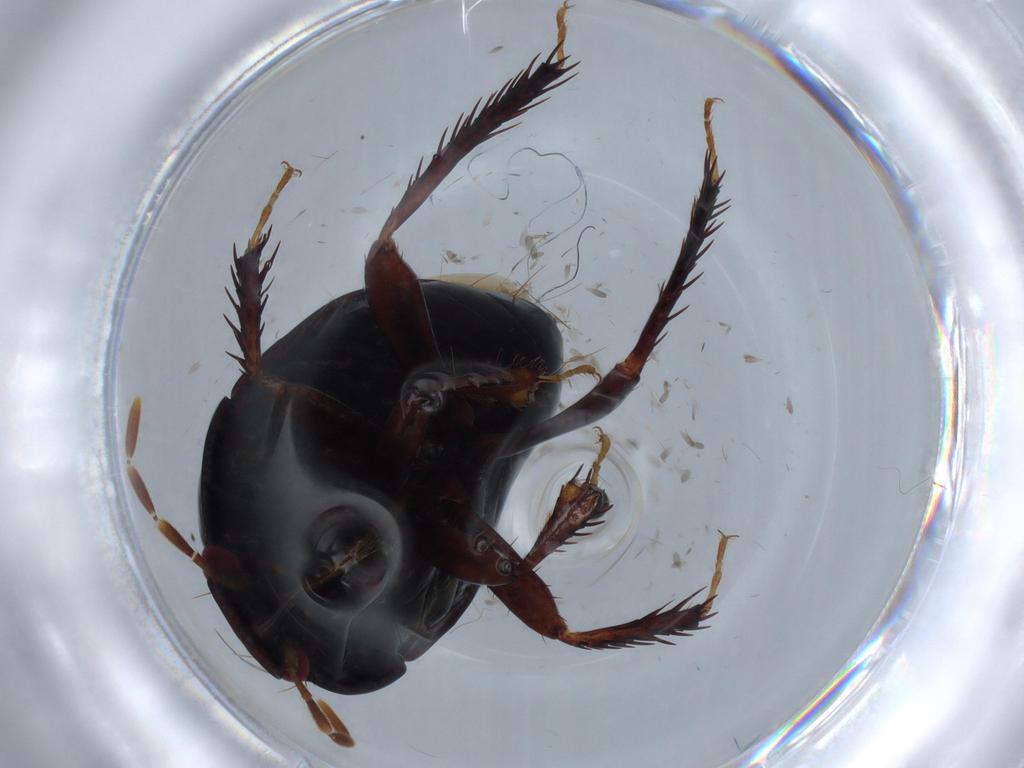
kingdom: Animalia
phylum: Arthropoda
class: Insecta
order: Hemiptera
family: Cydnidae
